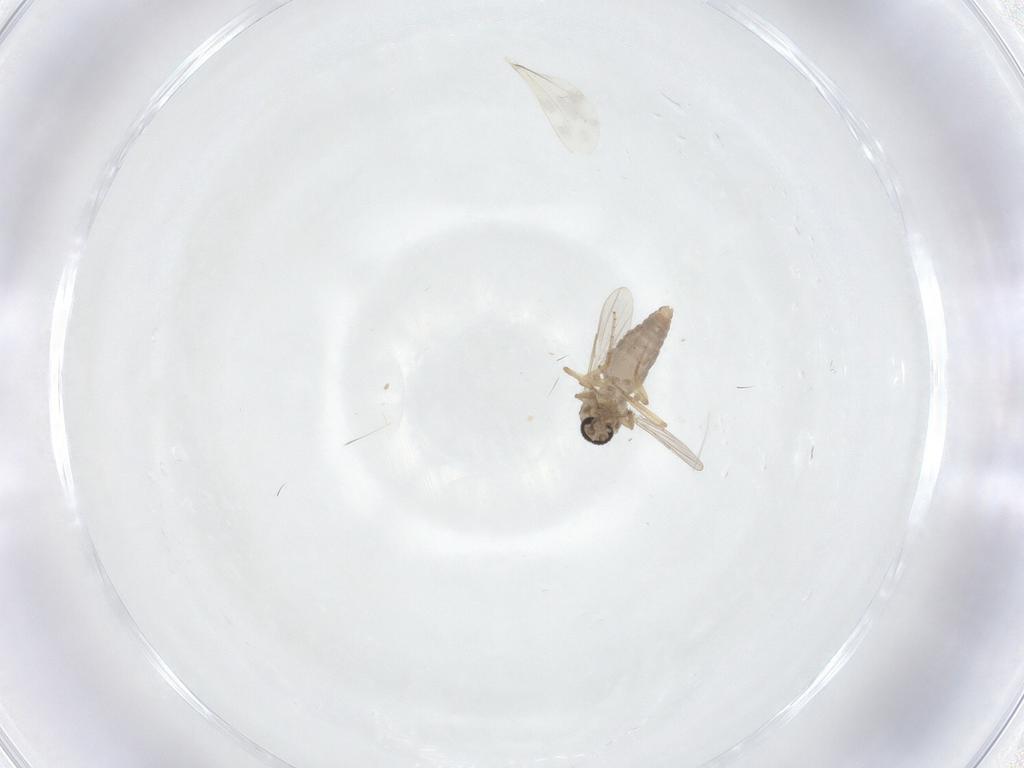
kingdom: Animalia
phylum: Arthropoda
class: Insecta
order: Diptera
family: Ceratopogonidae
